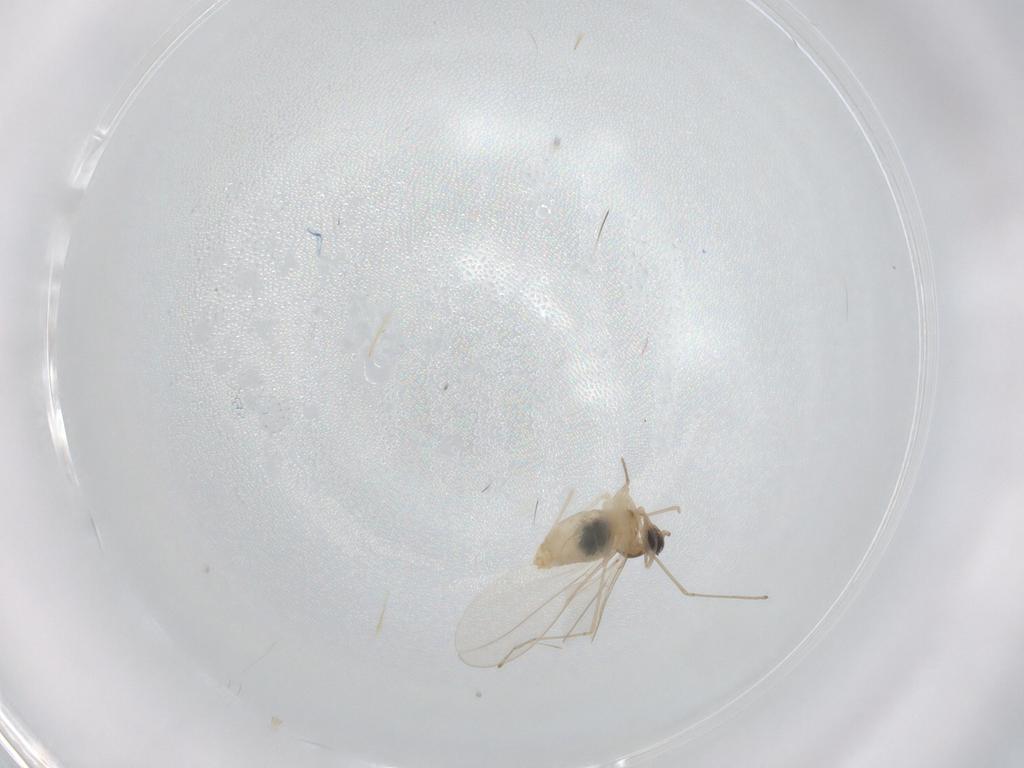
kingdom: Animalia
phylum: Arthropoda
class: Insecta
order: Diptera
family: Cecidomyiidae
